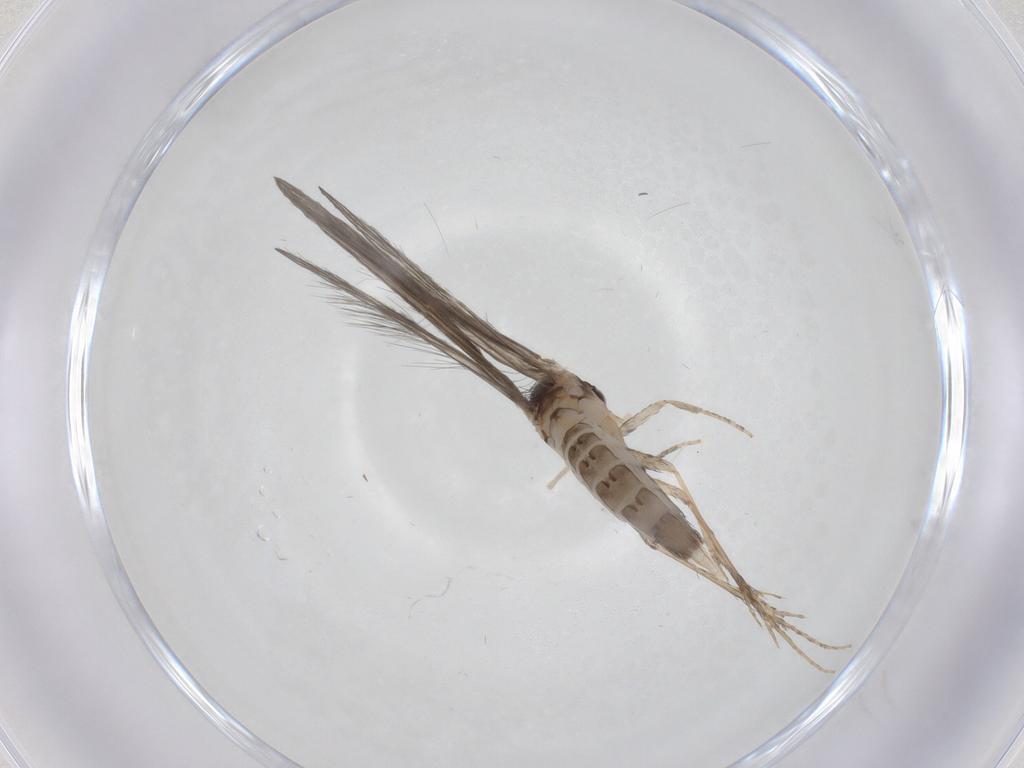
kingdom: Animalia
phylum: Arthropoda
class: Insecta
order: Trichoptera
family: Hydroptilidae
